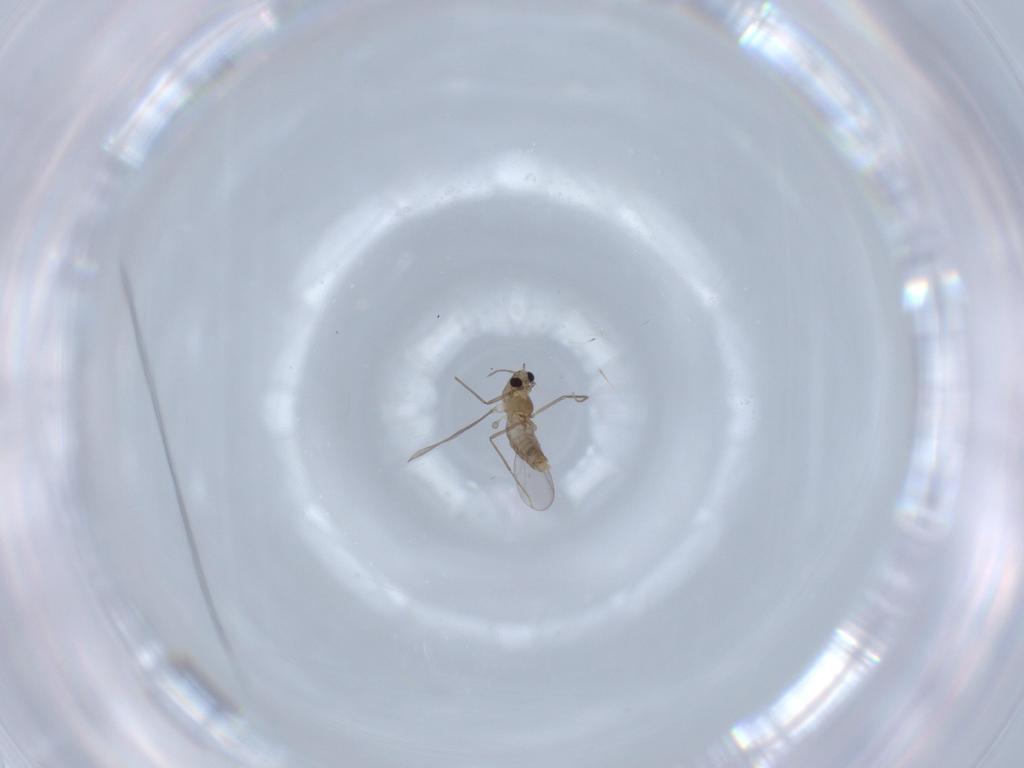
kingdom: Animalia
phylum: Arthropoda
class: Insecta
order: Diptera
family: Chironomidae
